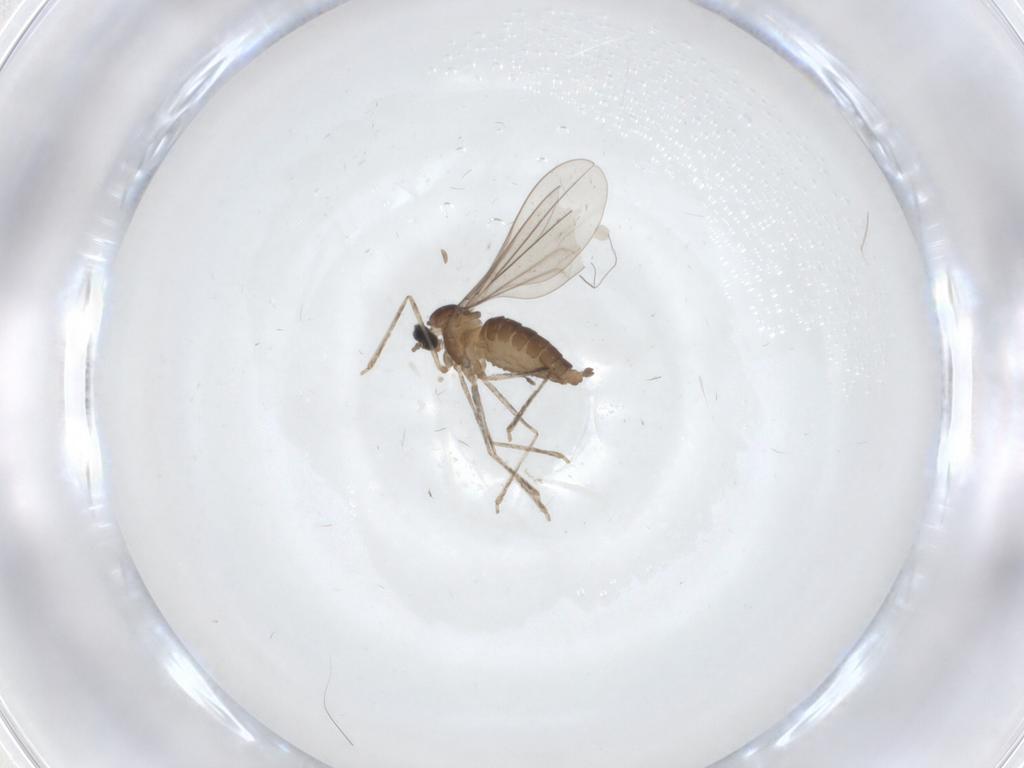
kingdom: Animalia
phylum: Arthropoda
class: Insecta
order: Diptera
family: Cecidomyiidae
